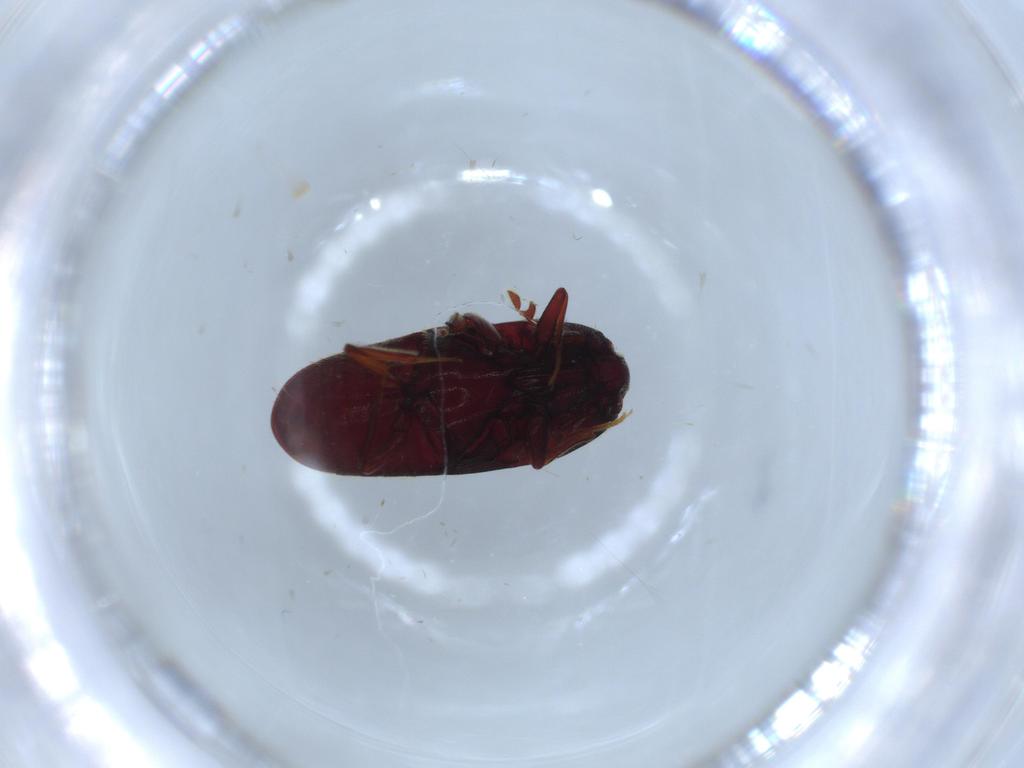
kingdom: Animalia
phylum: Arthropoda
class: Insecta
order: Coleoptera
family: Throscidae
